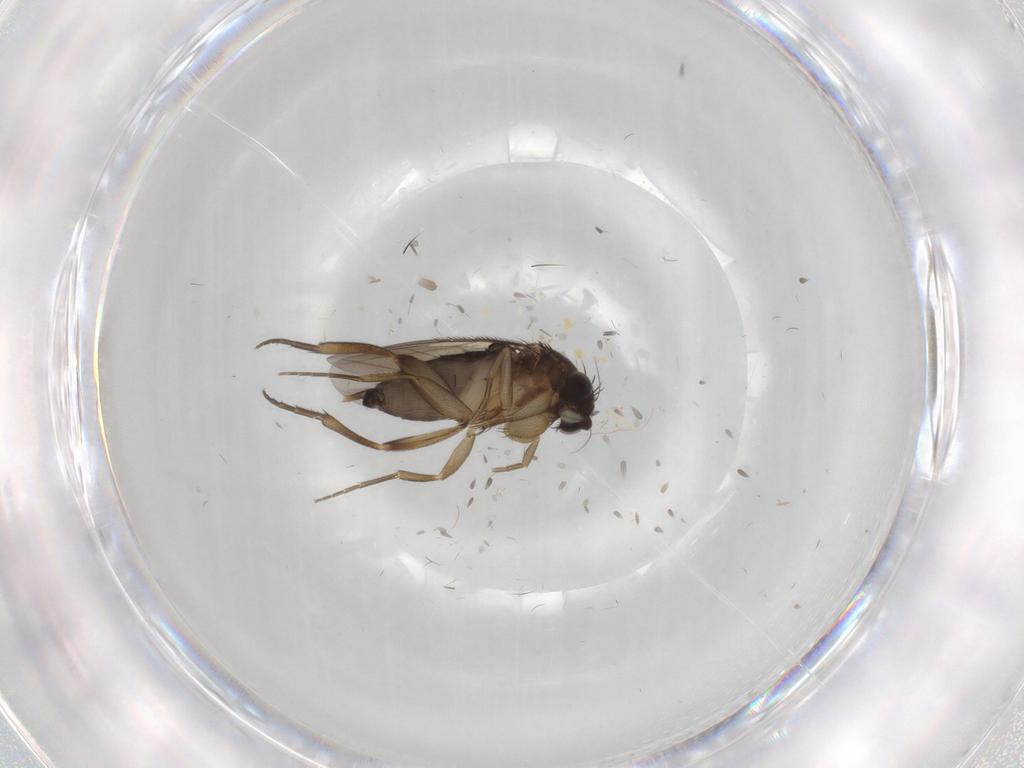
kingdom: Animalia
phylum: Arthropoda
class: Insecta
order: Diptera
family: Phoridae
